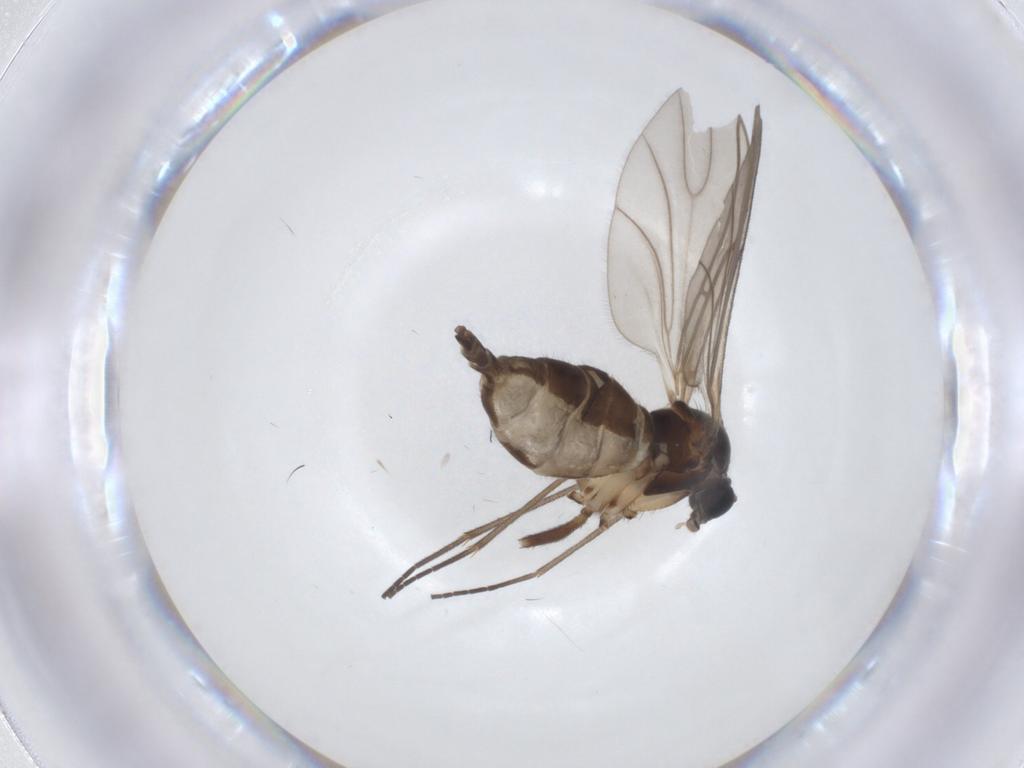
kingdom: Animalia
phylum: Arthropoda
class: Insecta
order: Diptera
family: Sciaridae
